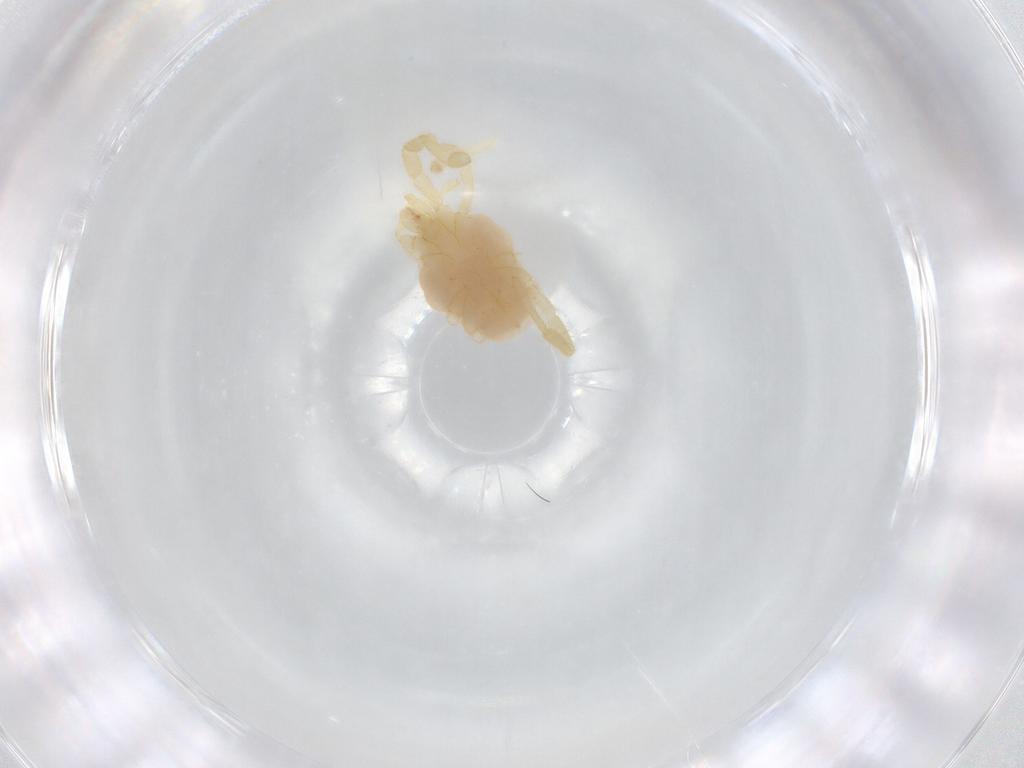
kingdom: Animalia
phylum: Arthropoda
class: Arachnida
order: Trombidiformes
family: Erythraeidae
